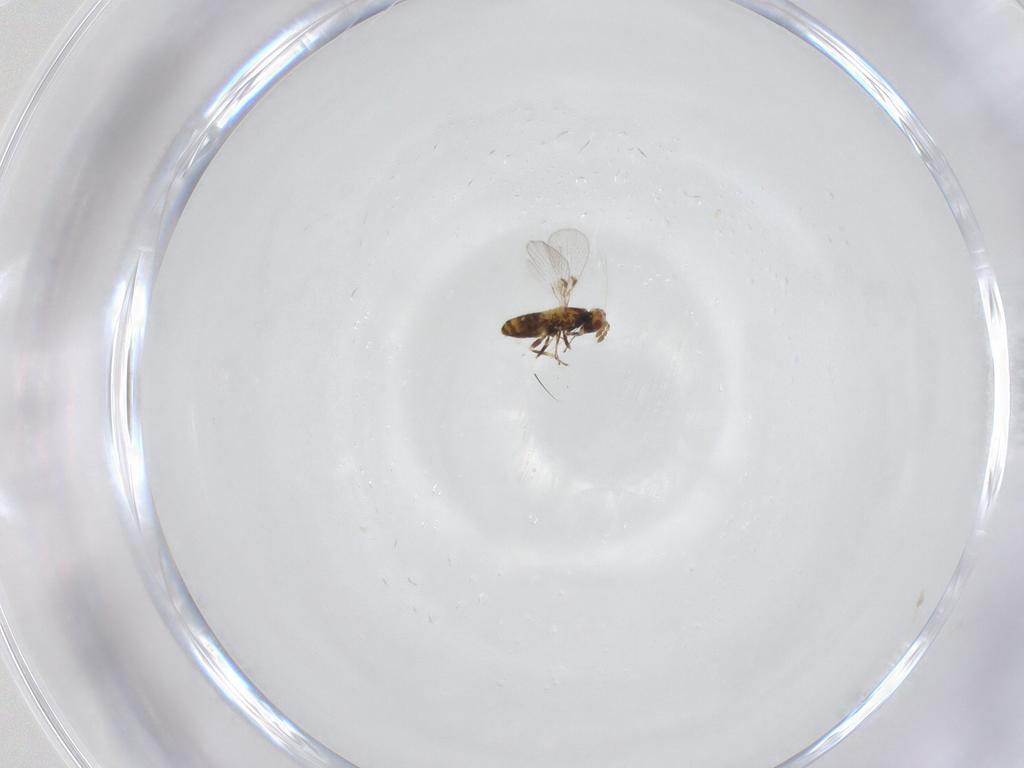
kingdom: Animalia
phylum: Arthropoda
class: Insecta
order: Hymenoptera
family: Trichogrammatidae
